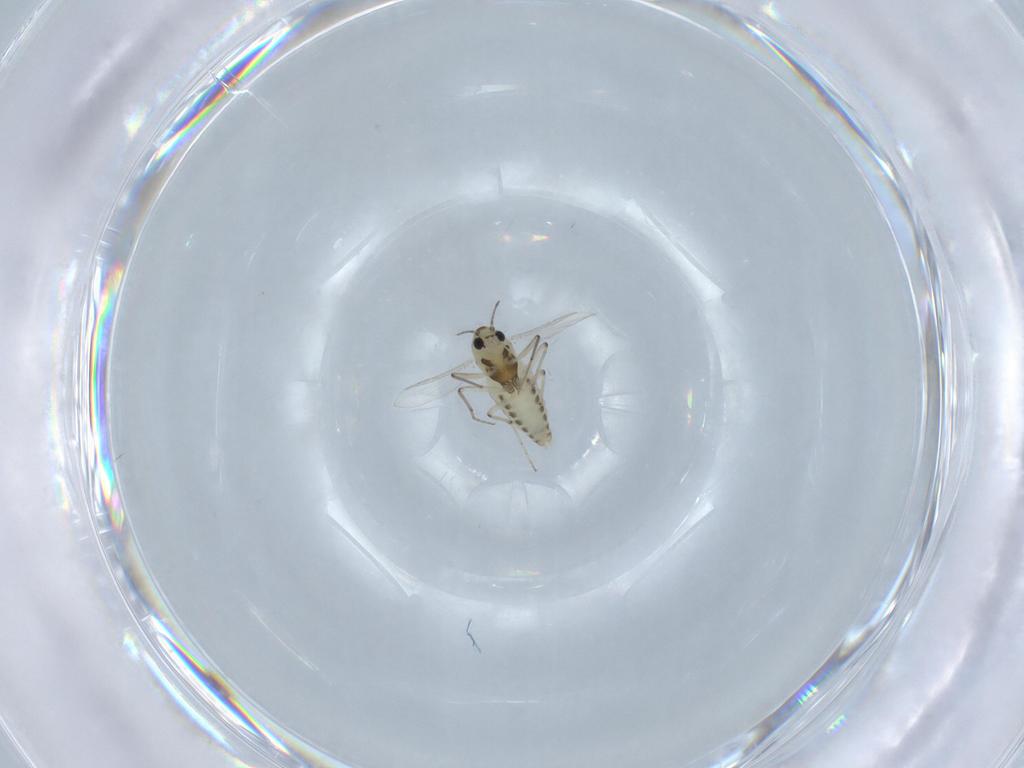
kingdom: Animalia
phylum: Arthropoda
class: Insecta
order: Diptera
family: Chironomidae
